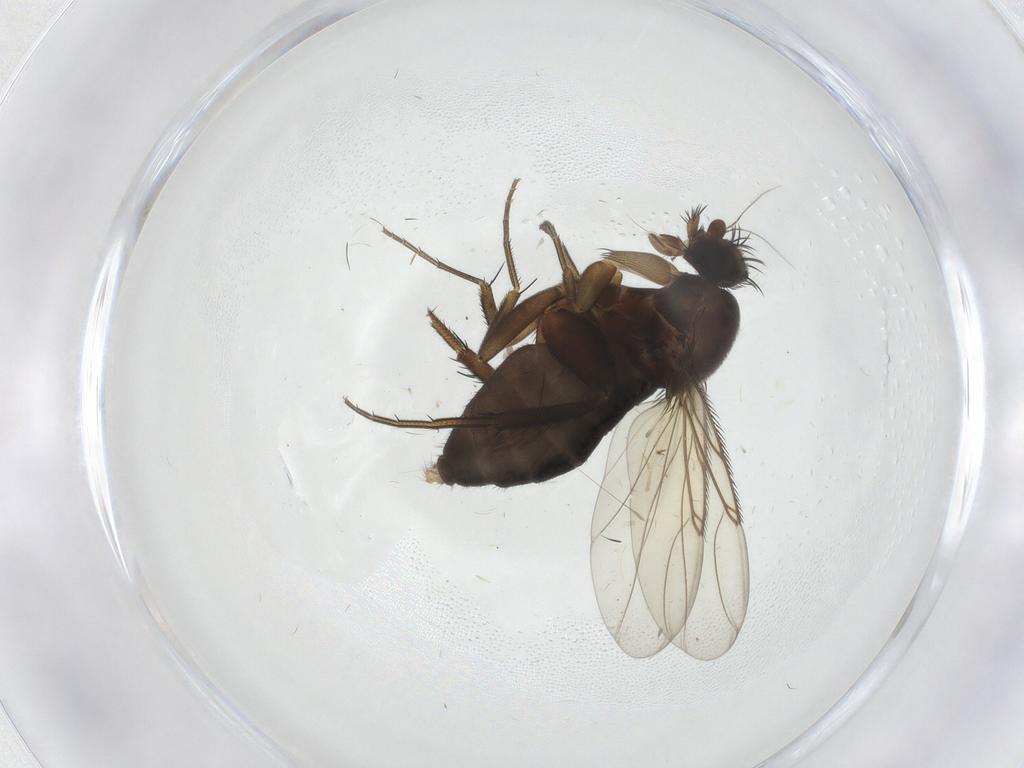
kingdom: Animalia
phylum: Arthropoda
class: Insecta
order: Diptera
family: Phoridae
